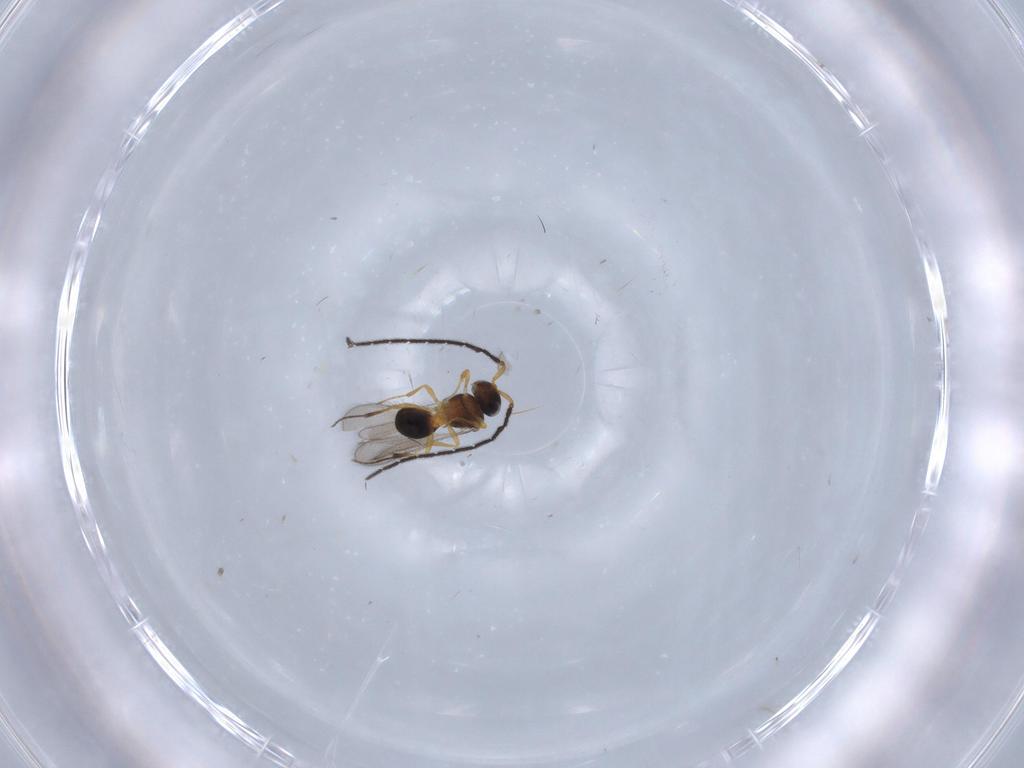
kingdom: Animalia
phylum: Arthropoda
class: Insecta
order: Hymenoptera
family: Scelionidae
